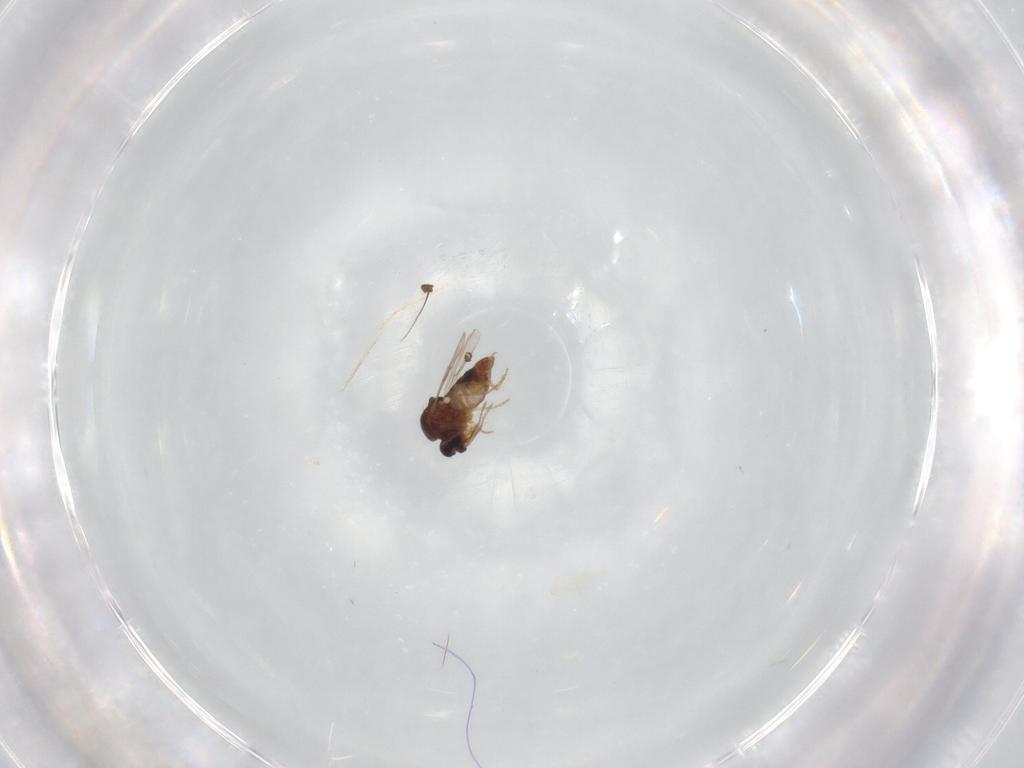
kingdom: Animalia
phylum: Arthropoda
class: Insecta
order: Diptera
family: Ceratopogonidae
